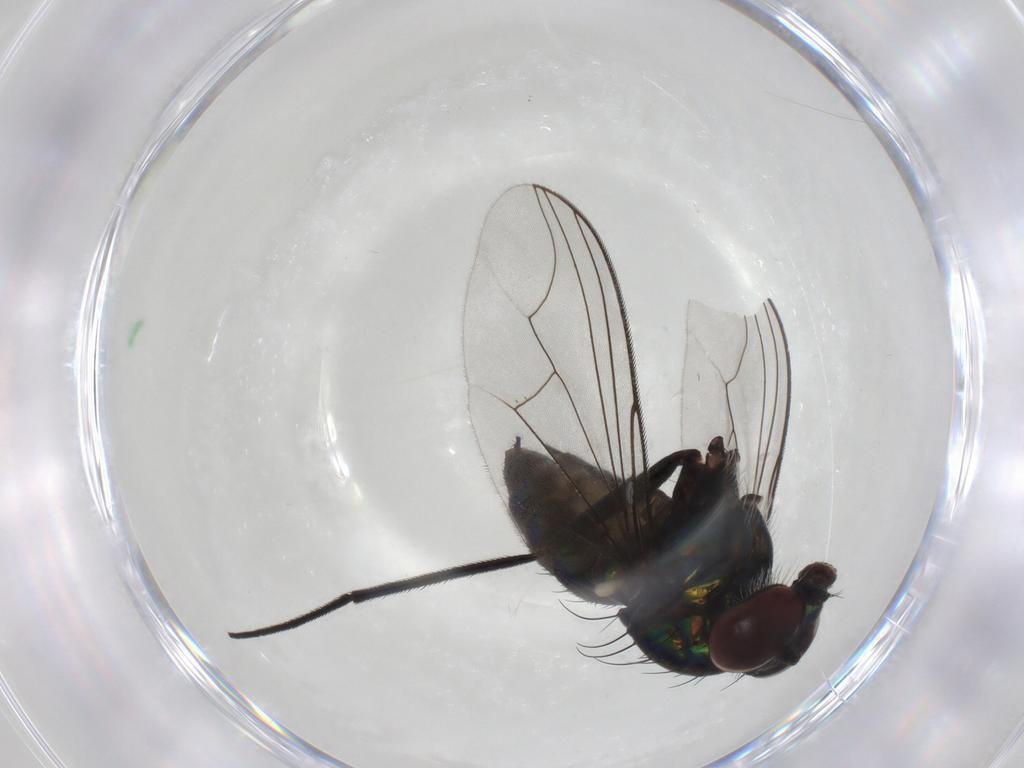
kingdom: Animalia
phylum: Arthropoda
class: Insecta
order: Diptera
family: Dolichopodidae
